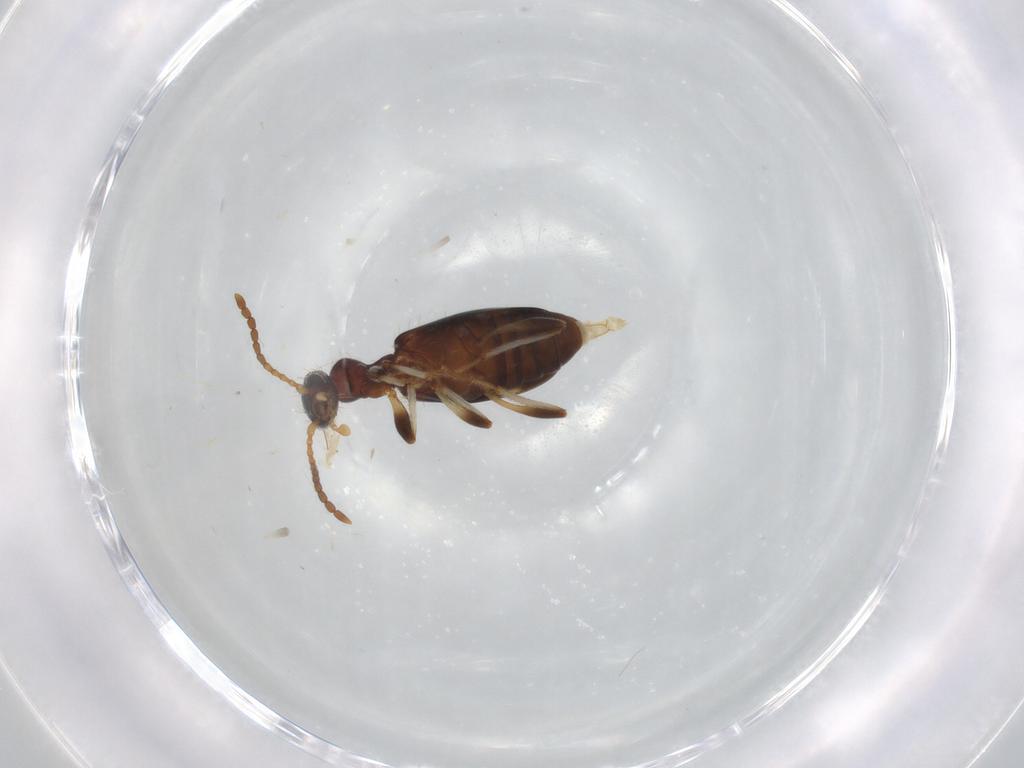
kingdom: Animalia
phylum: Arthropoda
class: Insecta
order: Coleoptera
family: Anthicidae
